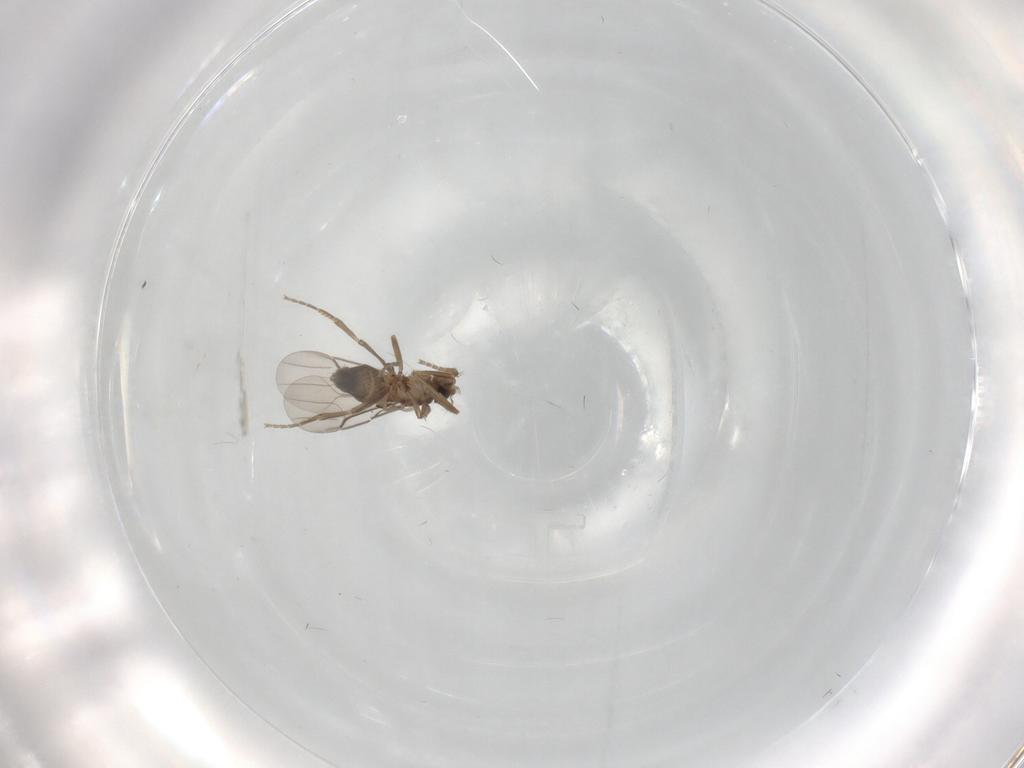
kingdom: Animalia
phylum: Arthropoda
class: Insecta
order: Diptera
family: Phoridae
